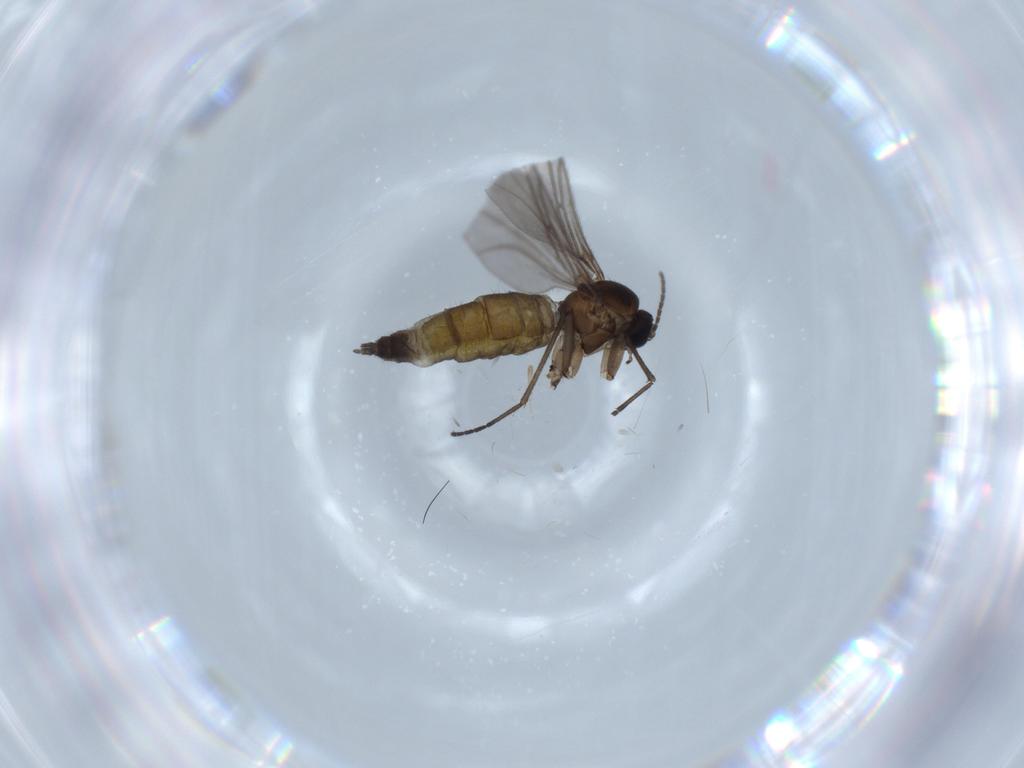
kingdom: Animalia
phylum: Arthropoda
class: Insecta
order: Diptera
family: Sciaridae
